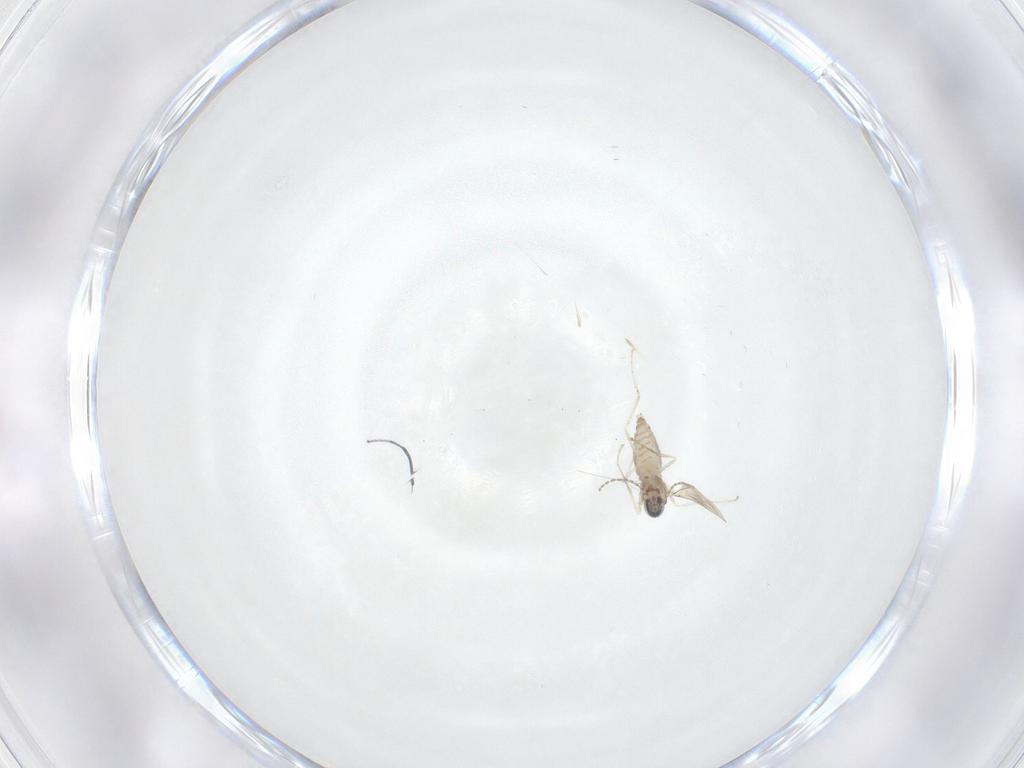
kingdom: Animalia
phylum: Arthropoda
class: Insecta
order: Diptera
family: Cecidomyiidae
